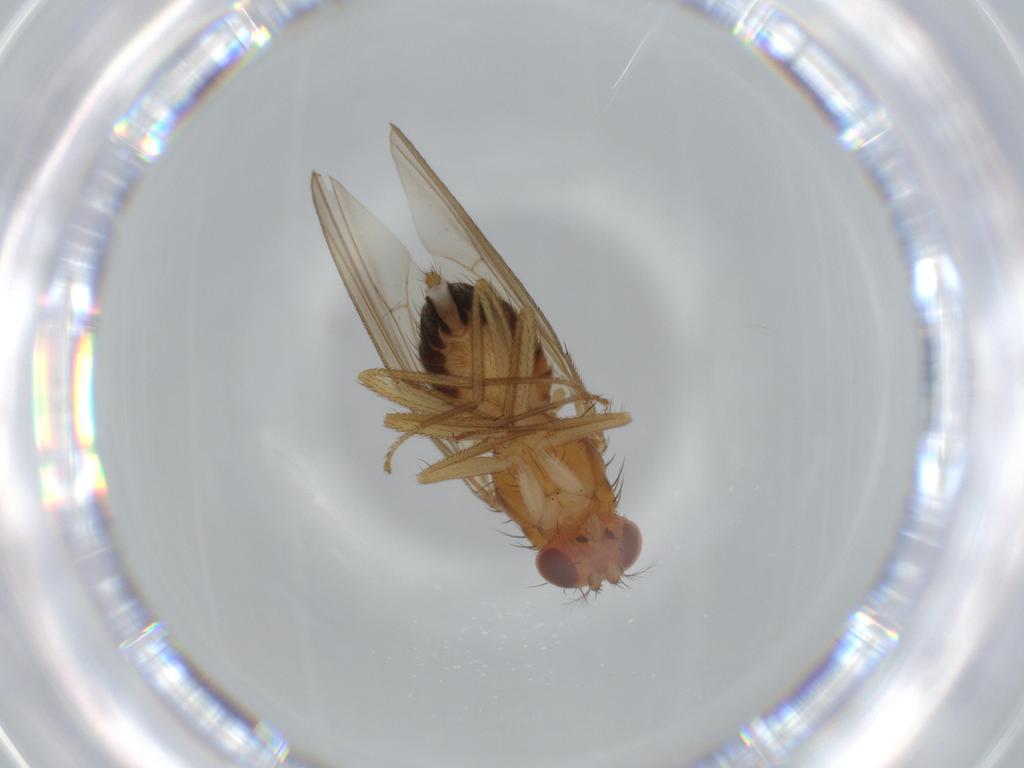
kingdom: Animalia
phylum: Arthropoda
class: Insecta
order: Diptera
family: Drosophilidae
